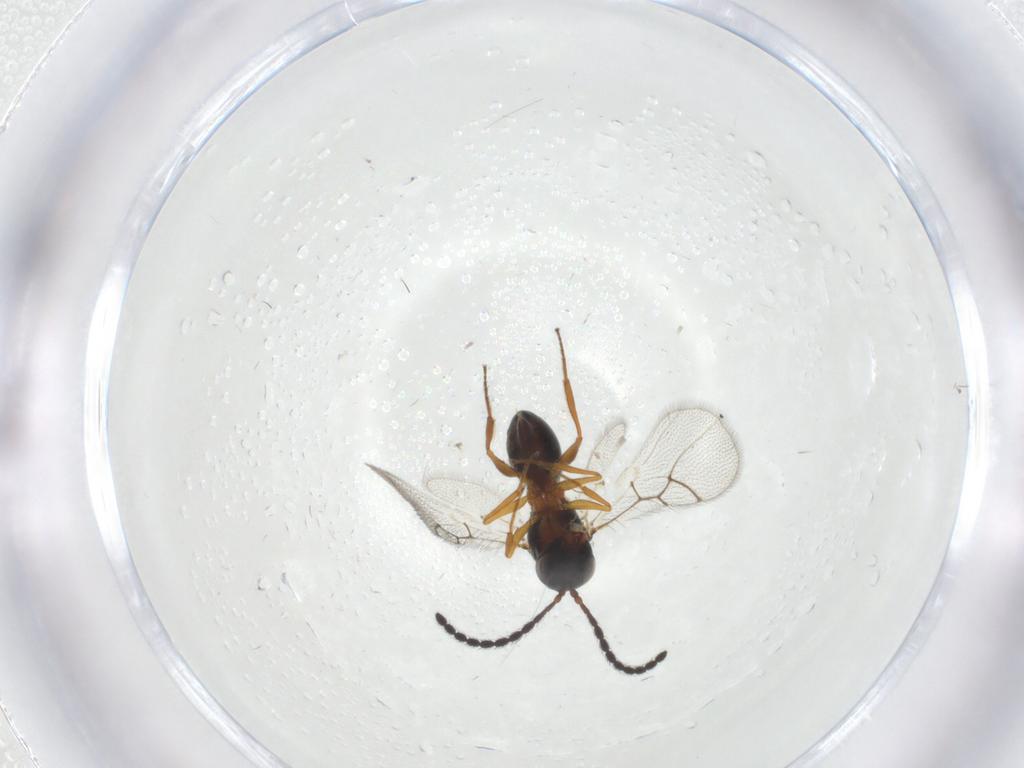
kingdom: Animalia
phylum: Arthropoda
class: Insecta
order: Hymenoptera
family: Figitidae
